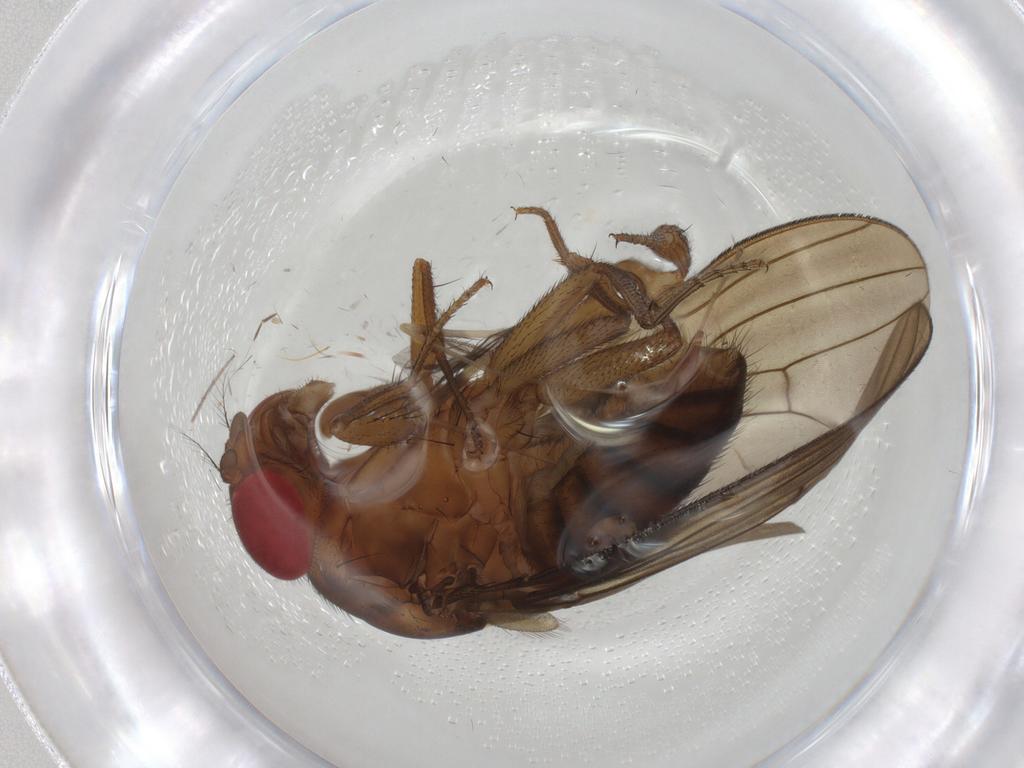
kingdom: Animalia
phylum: Arthropoda
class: Insecta
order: Diptera
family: Drosophilidae
